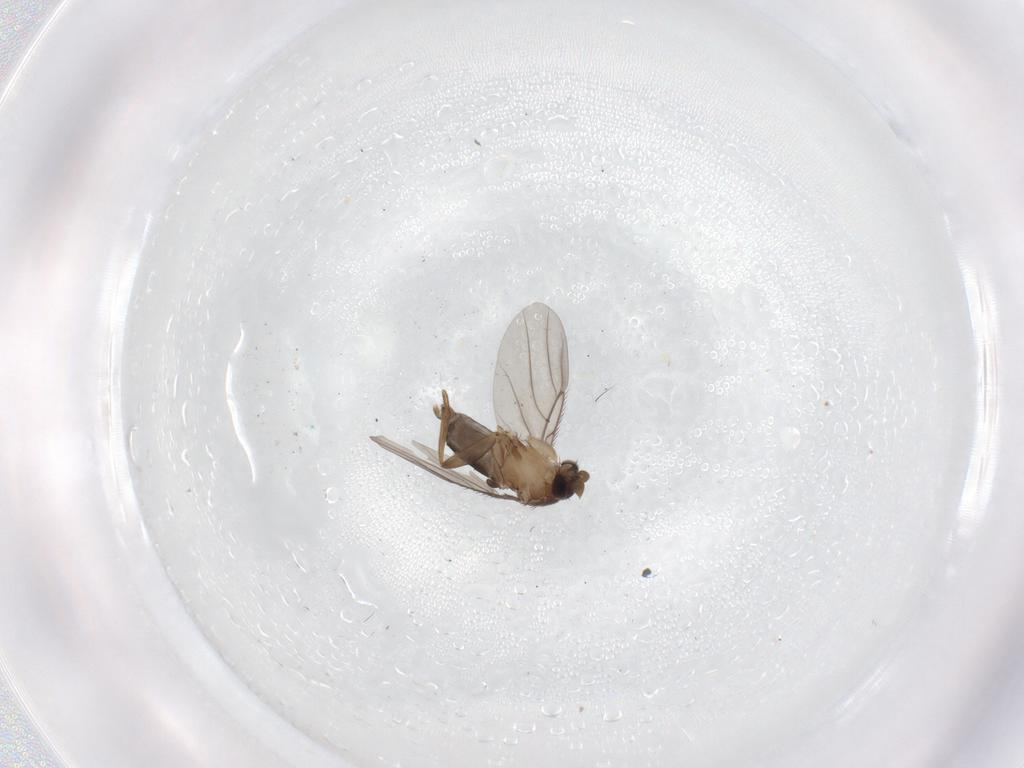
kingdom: Animalia
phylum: Arthropoda
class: Insecta
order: Diptera
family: Phoridae
